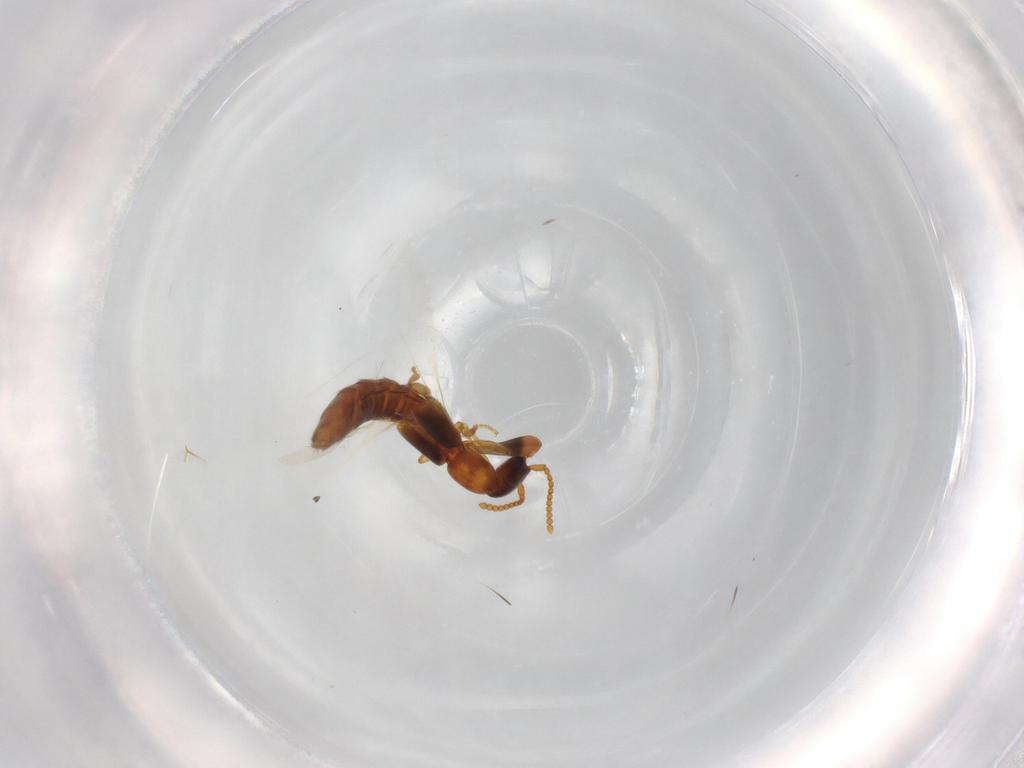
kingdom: Animalia
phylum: Arthropoda
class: Insecta
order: Coleoptera
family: Staphylinidae
